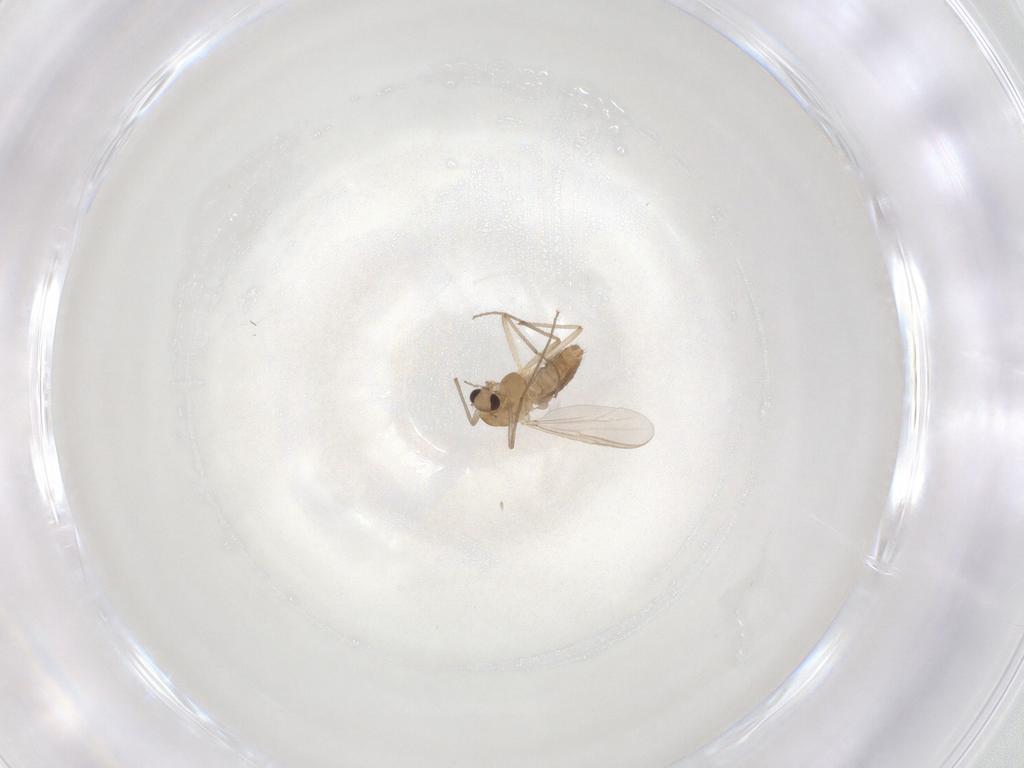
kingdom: Animalia
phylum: Arthropoda
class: Insecta
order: Diptera
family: Chironomidae
